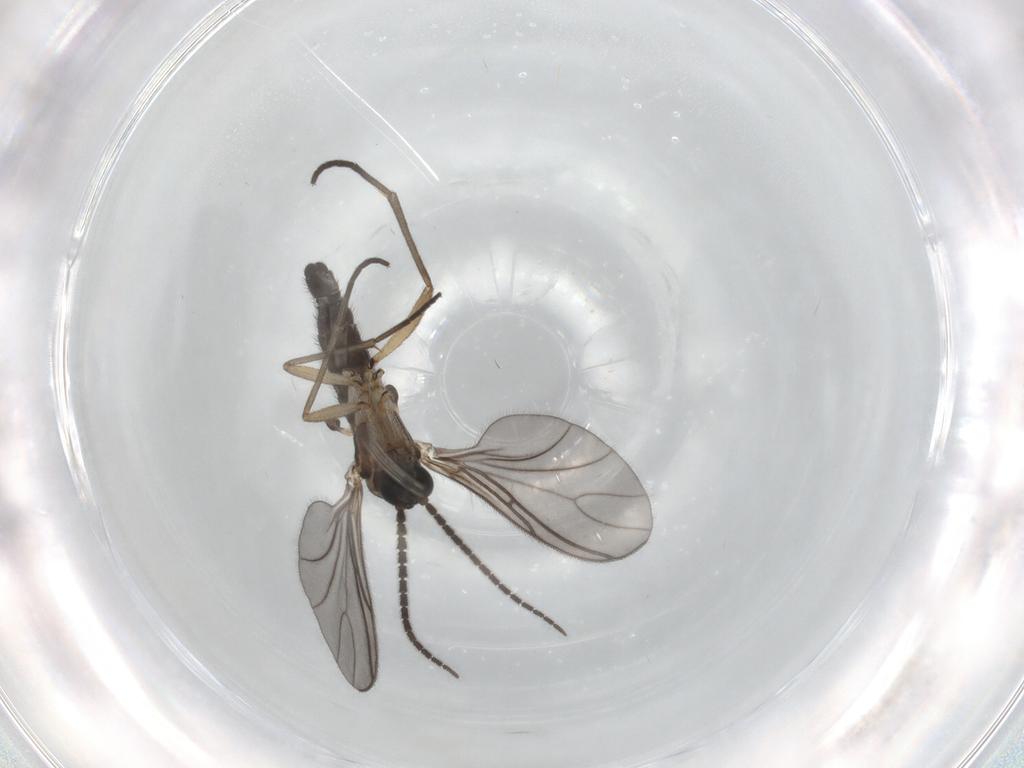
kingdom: Animalia
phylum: Arthropoda
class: Insecta
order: Diptera
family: Sciaridae
